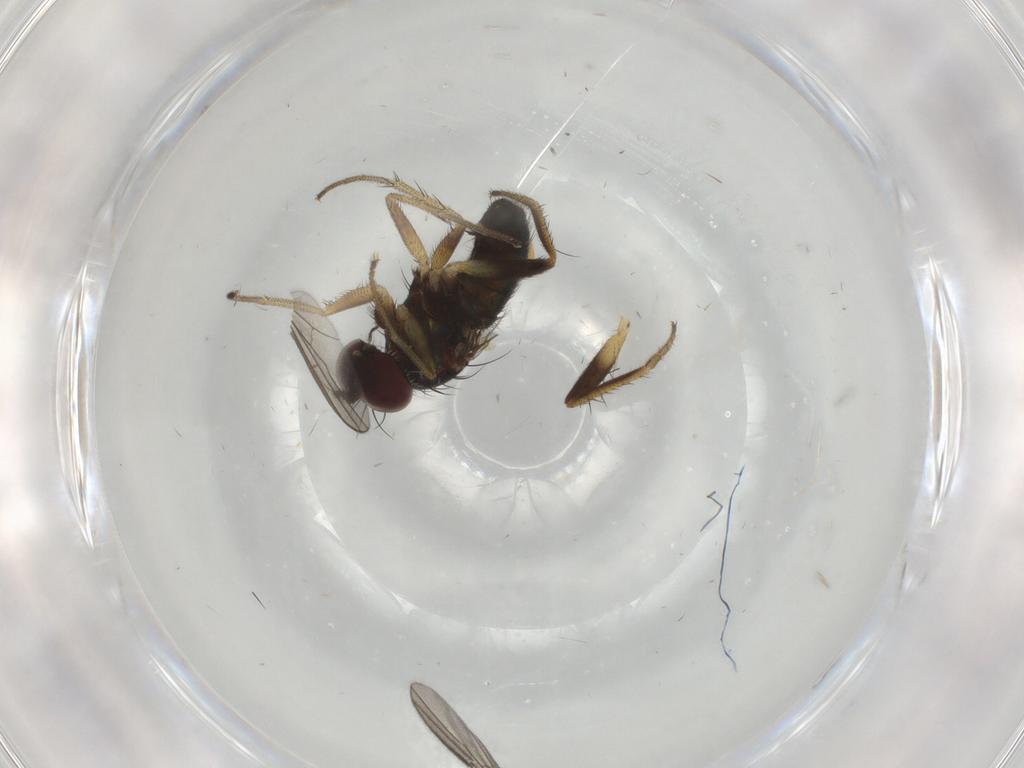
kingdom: Animalia
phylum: Arthropoda
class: Insecta
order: Diptera
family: Dolichopodidae
